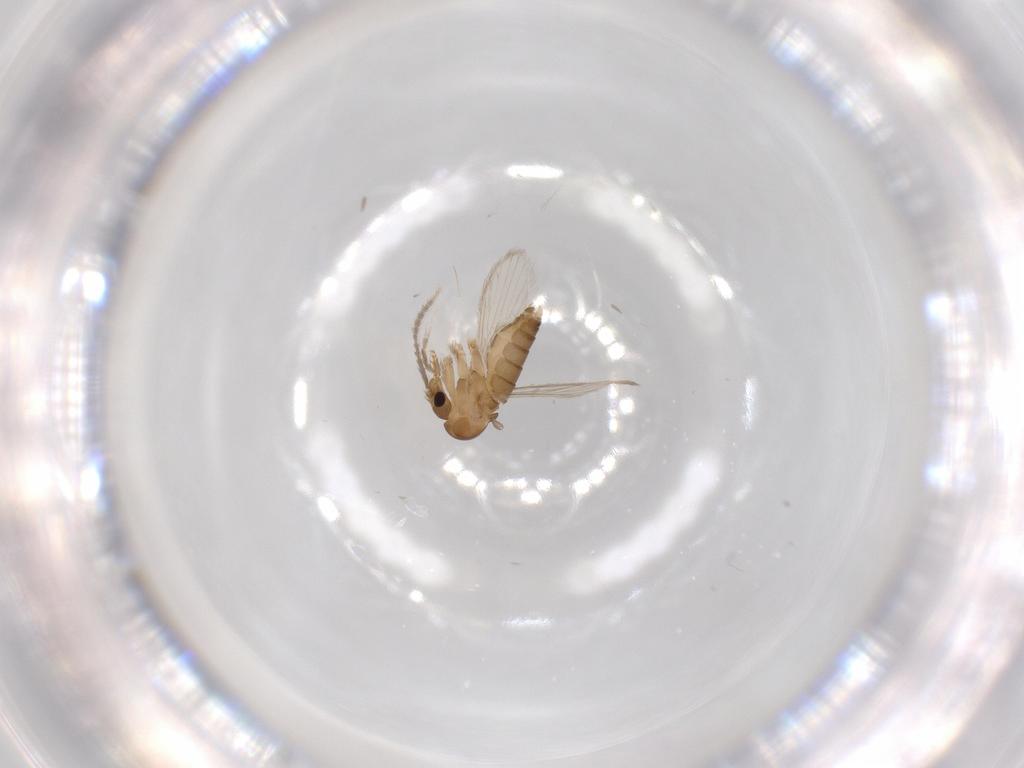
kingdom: Animalia
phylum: Arthropoda
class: Insecta
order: Diptera
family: Psychodidae
